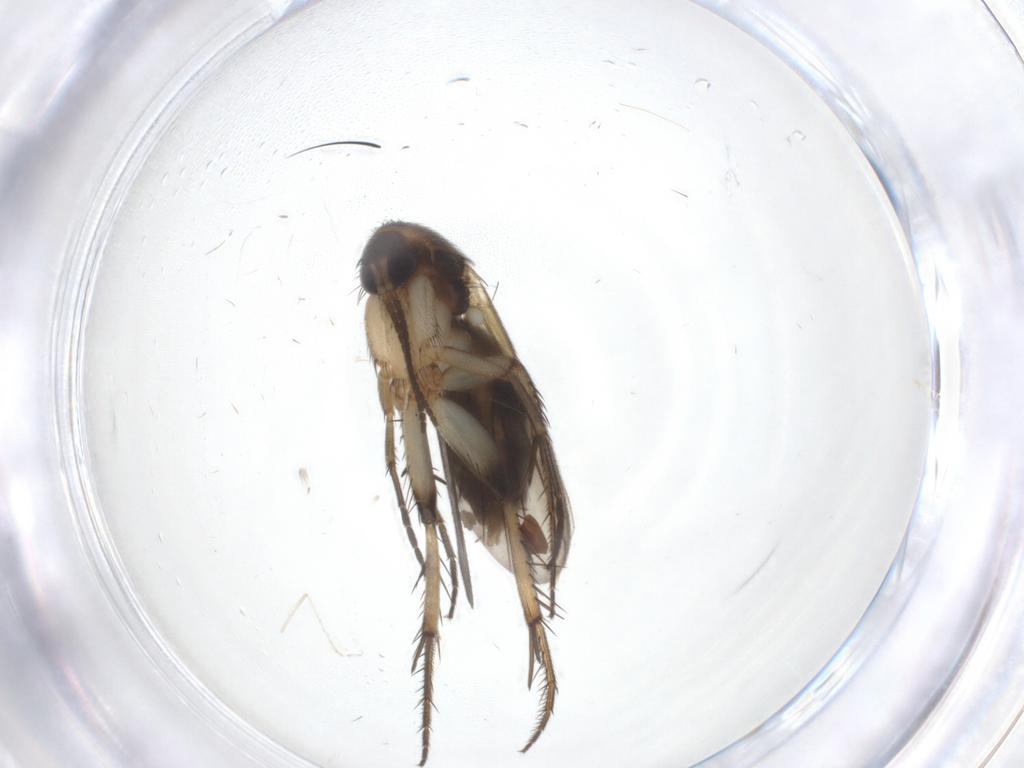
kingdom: Animalia
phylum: Arthropoda
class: Insecta
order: Diptera
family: Mycetophilidae
